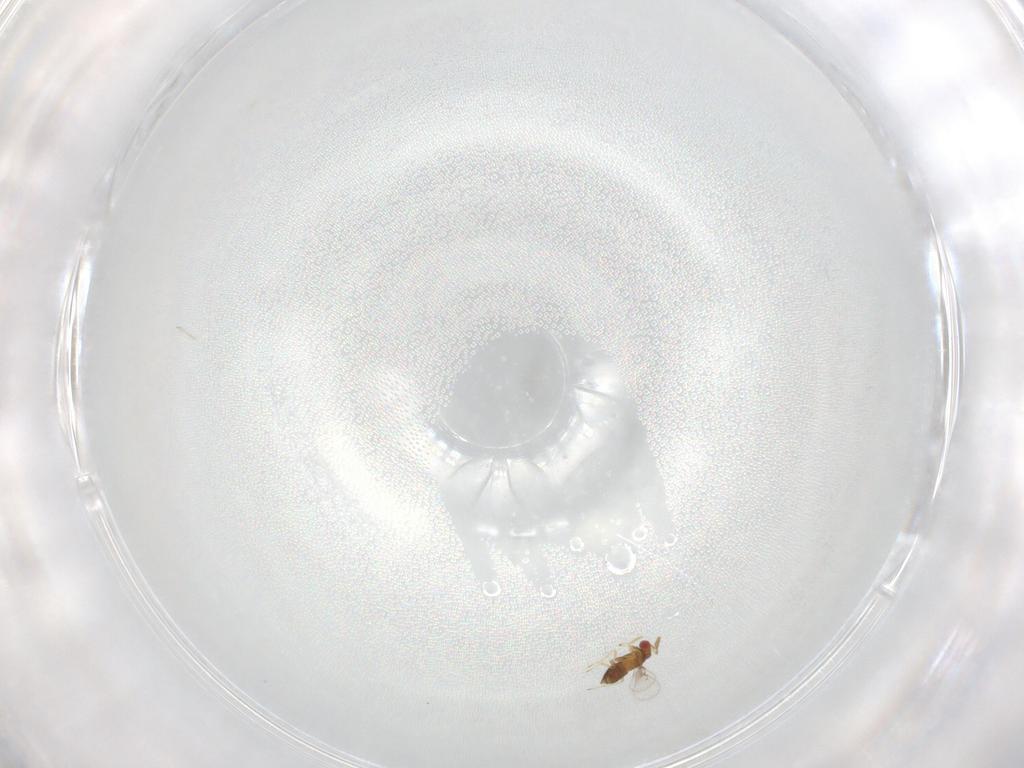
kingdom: Animalia
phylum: Arthropoda
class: Insecta
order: Hymenoptera
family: Trichogrammatidae
